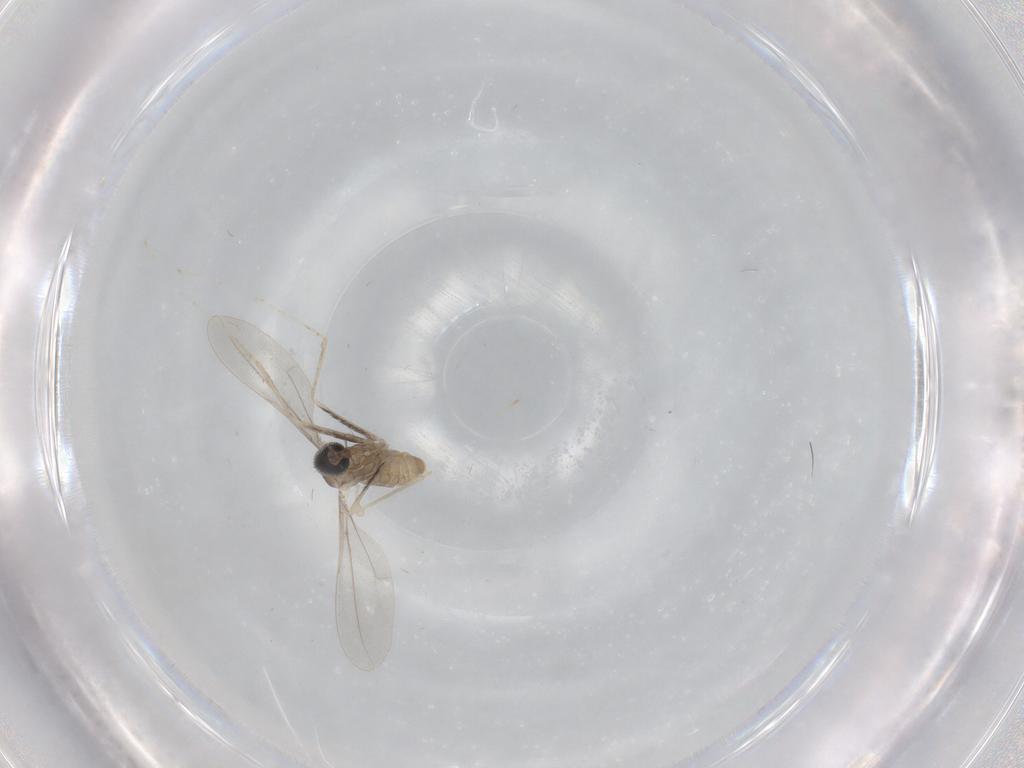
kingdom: Animalia
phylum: Arthropoda
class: Insecta
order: Diptera
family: Cecidomyiidae
